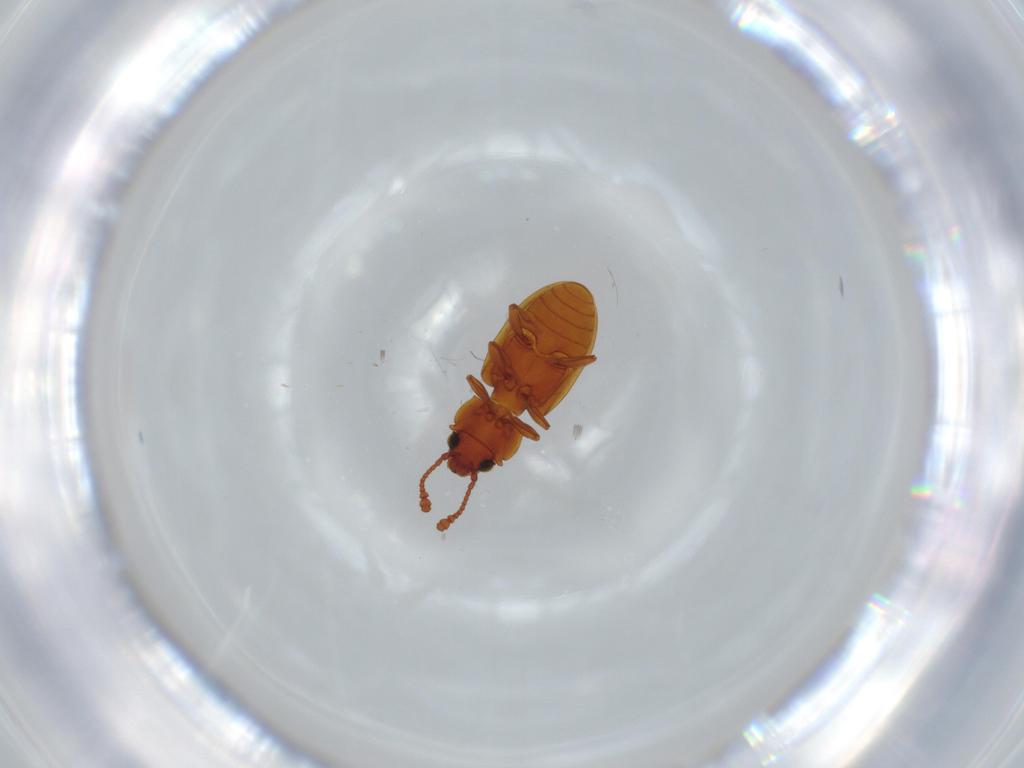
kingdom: Animalia
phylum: Arthropoda
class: Insecta
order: Coleoptera
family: Silvanidae
